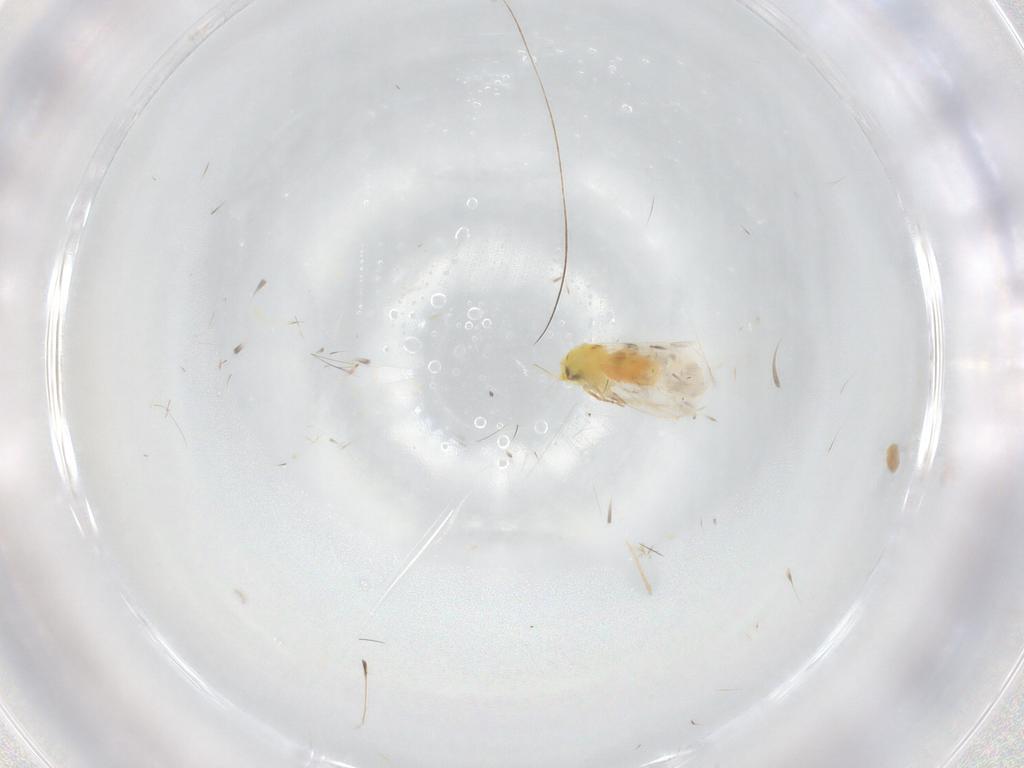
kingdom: Animalia
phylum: Arthropoda
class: Insecta
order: Hemiptera
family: Aleyrodidae
